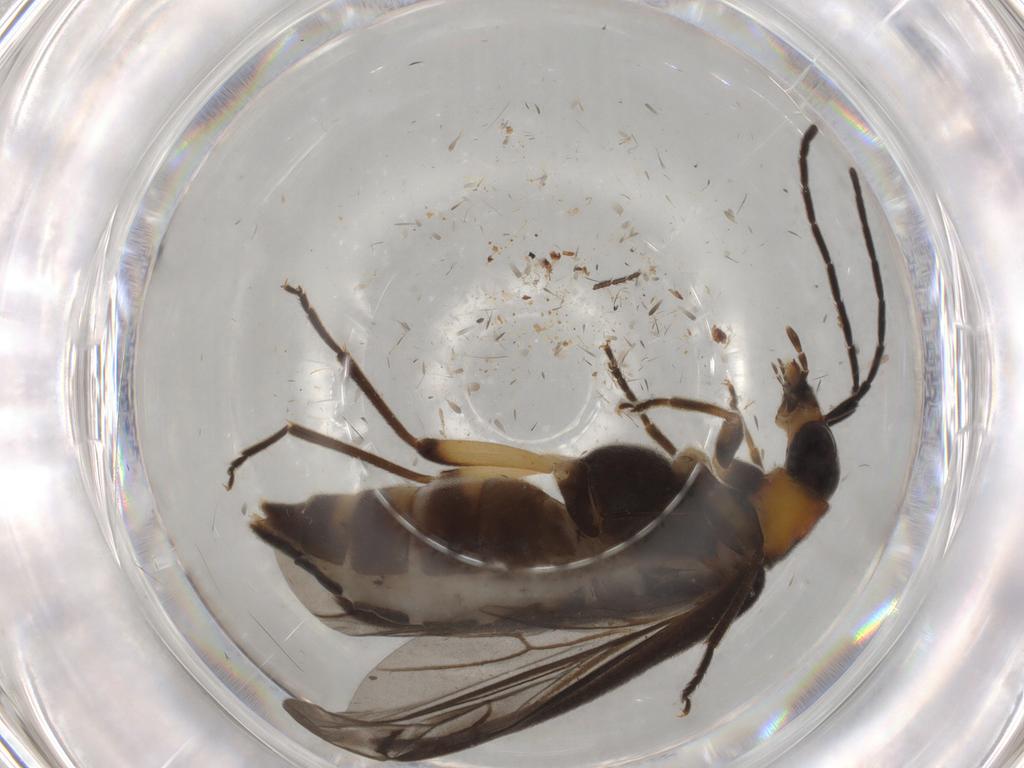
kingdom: Animalia
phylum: Arthropoda
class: Insecta
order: Coleoptera
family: Oedemeridae
